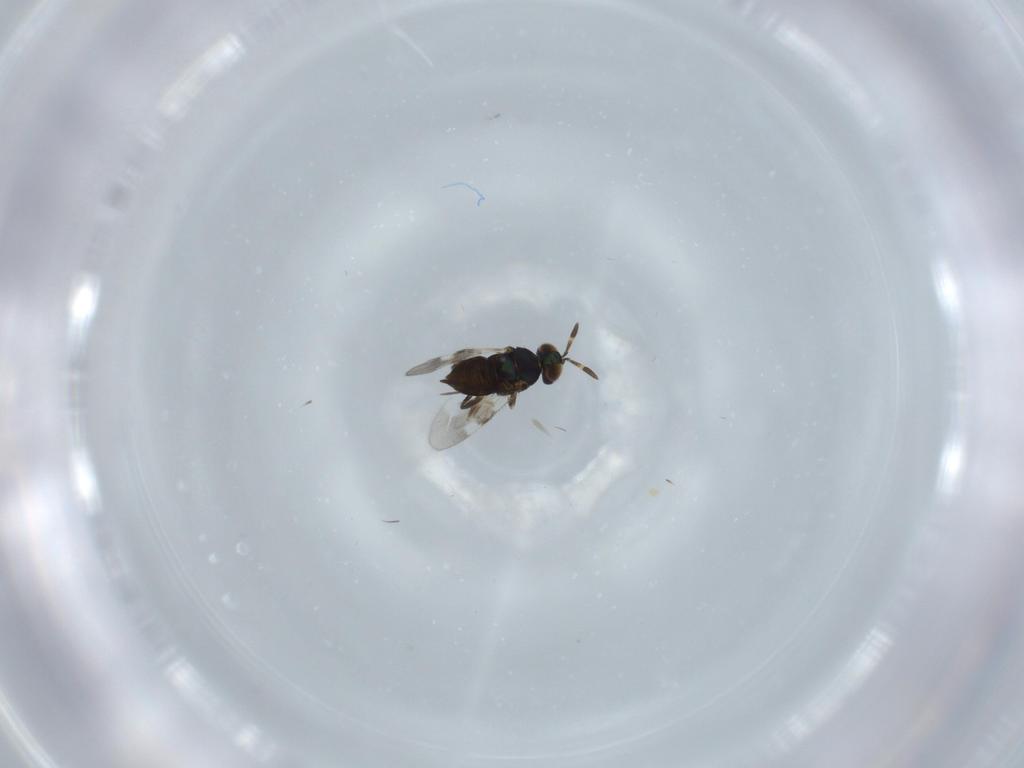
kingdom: Animalia
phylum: Arthropoda
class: Insecta
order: Hymenoptera
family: Encyrtidae
